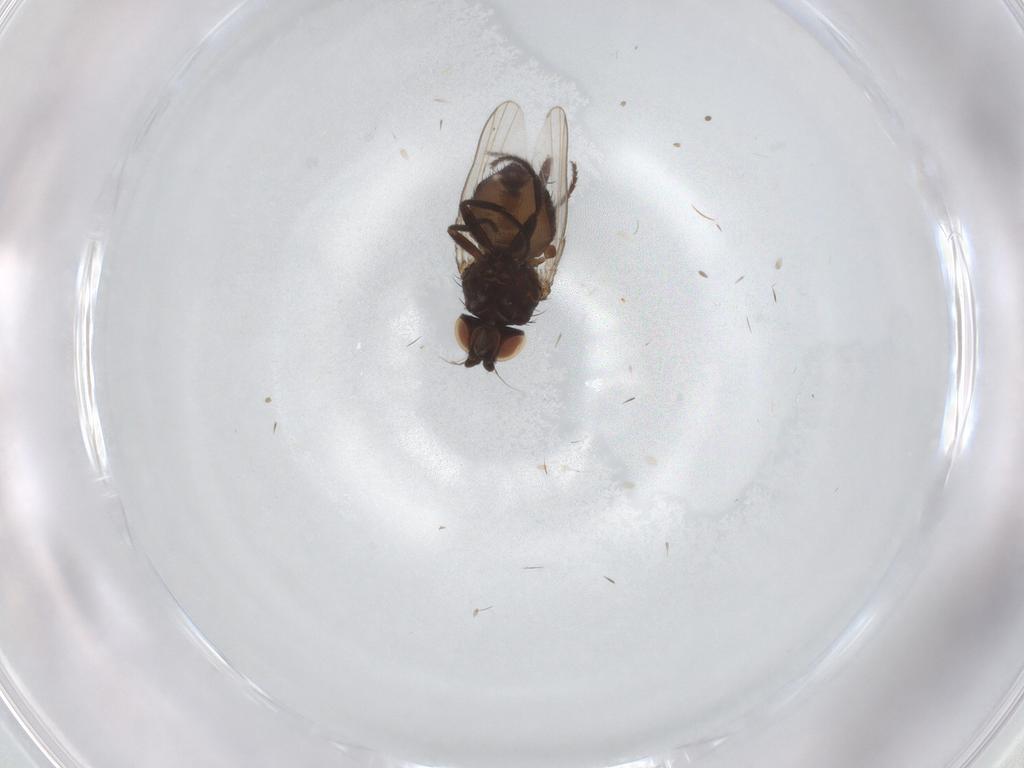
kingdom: Animalia
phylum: Arthropoda
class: Insecta
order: Diptera
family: Milichiidae
